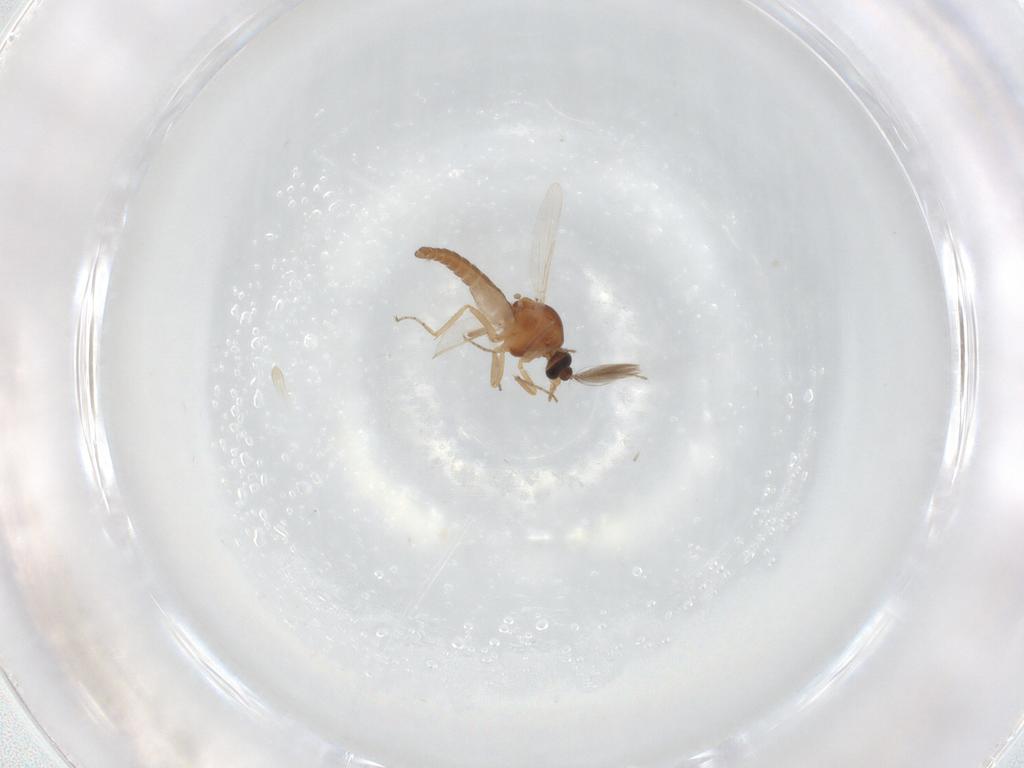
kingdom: Animalia
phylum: Arthropoda
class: Insecta
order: Diptera
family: Ceratopogonidae
